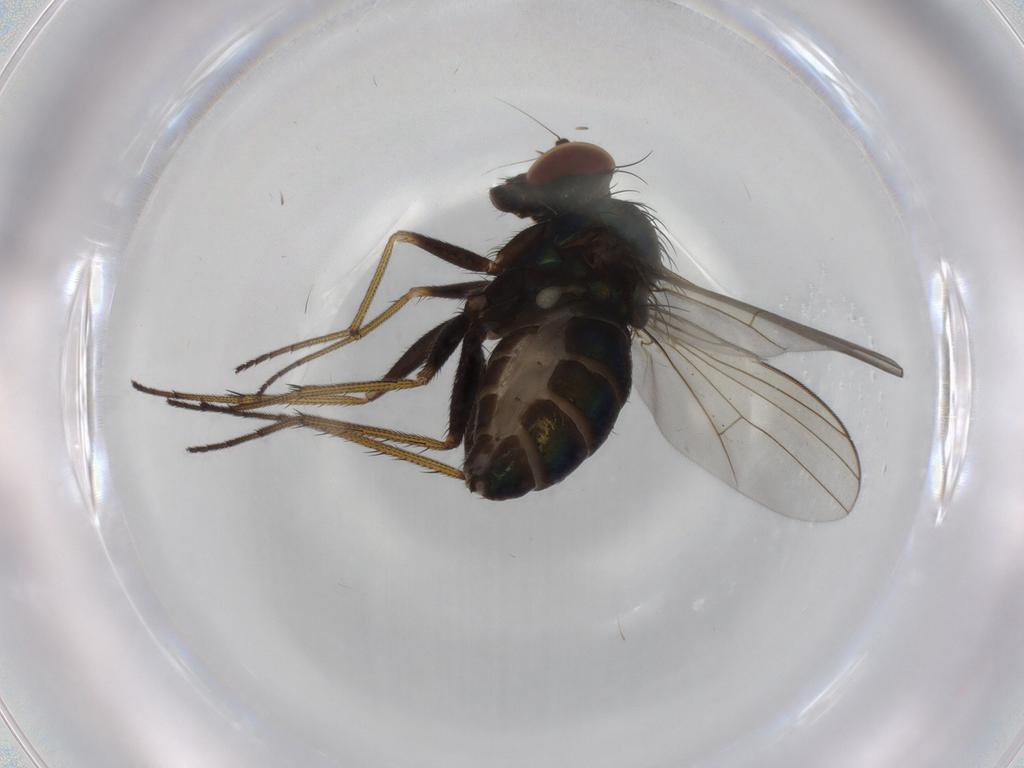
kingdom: Animalia
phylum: Arthropoda
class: Insecta
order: Diptera
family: Dolichopodidae
